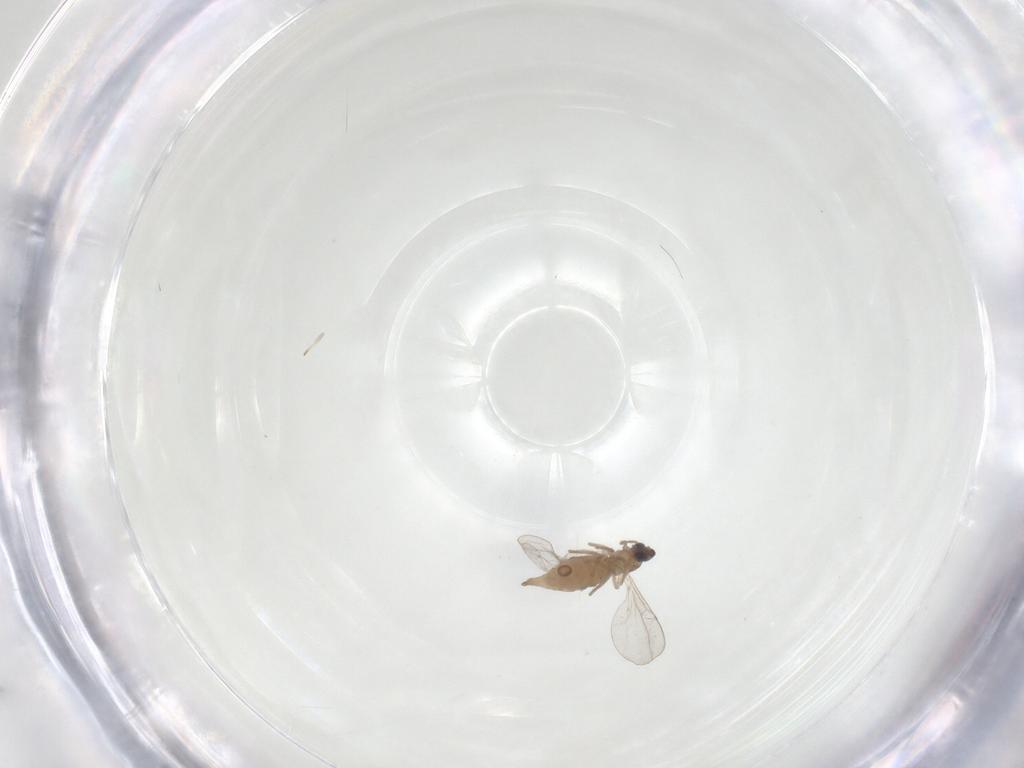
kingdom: Animalia
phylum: Arthropoda
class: Insecta
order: Diptera
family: Cecidomyiidae
